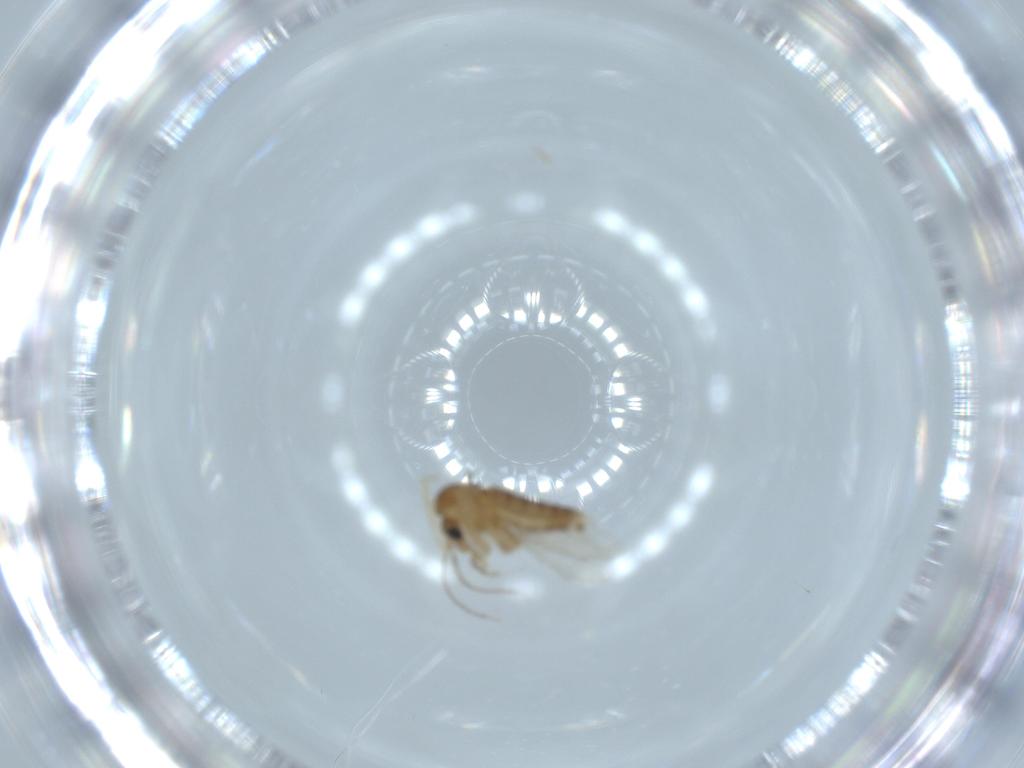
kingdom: Animalia
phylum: Arthropoda
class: Insecta
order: Diptera
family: Psychodidae
